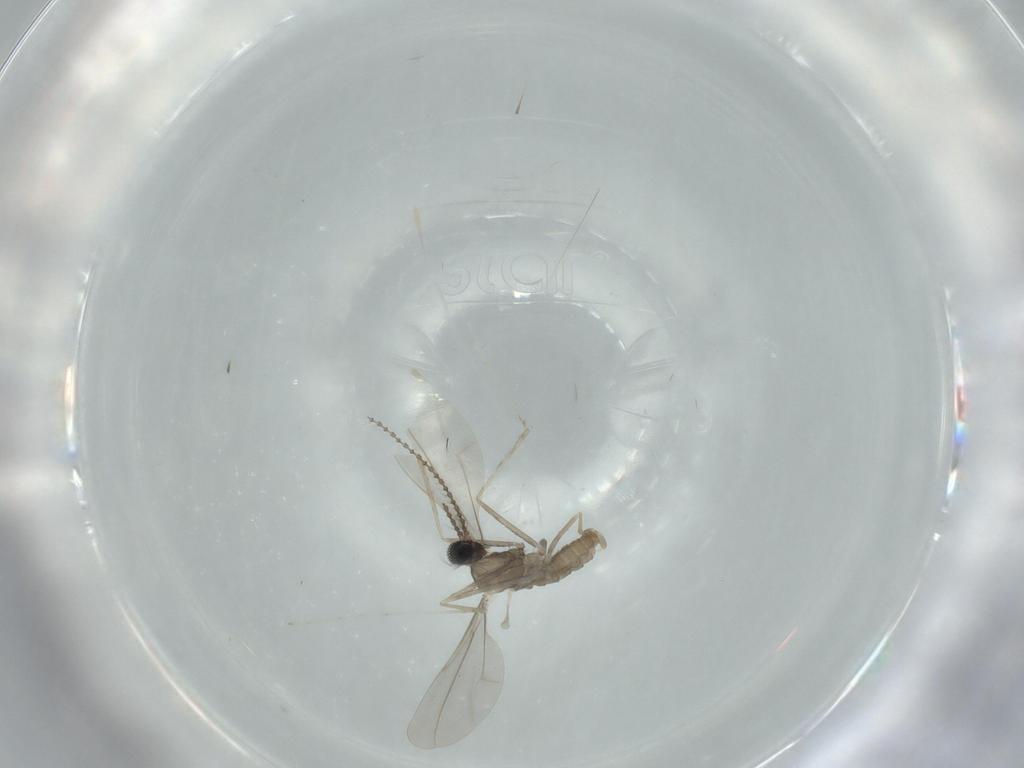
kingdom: Animalia
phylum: Arthropoda
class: Insecta
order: Diptera
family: Cecidomyiidae
